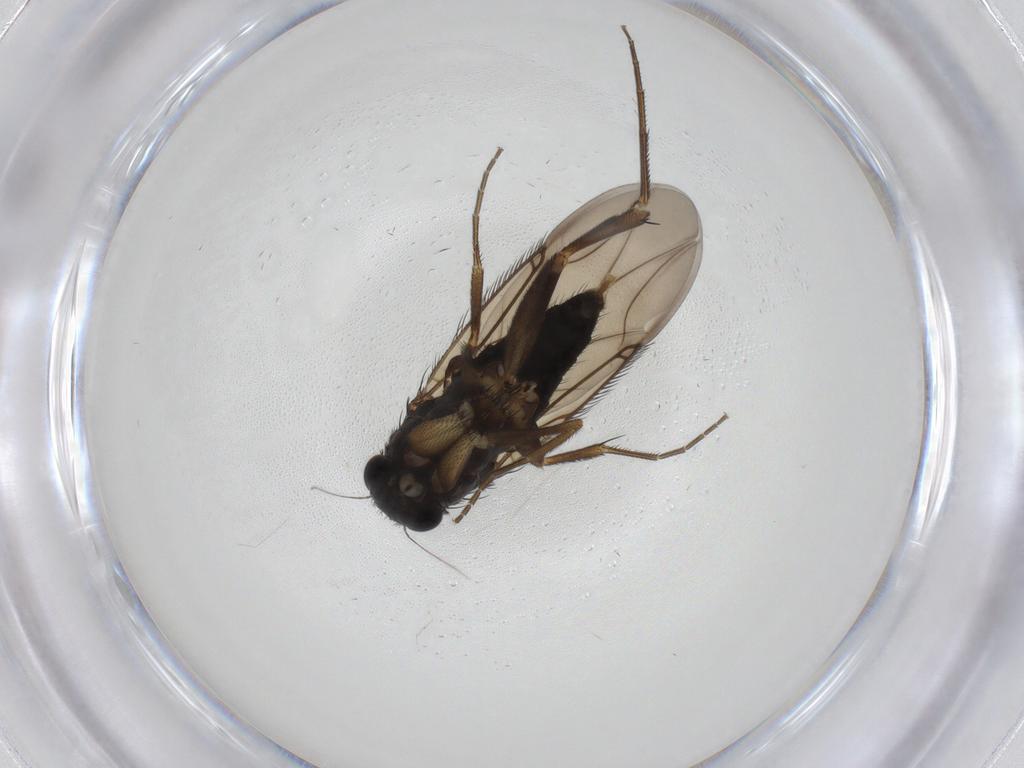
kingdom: Animalia
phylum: Arthropoda
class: Insecta
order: Diptera
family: Phoridae
